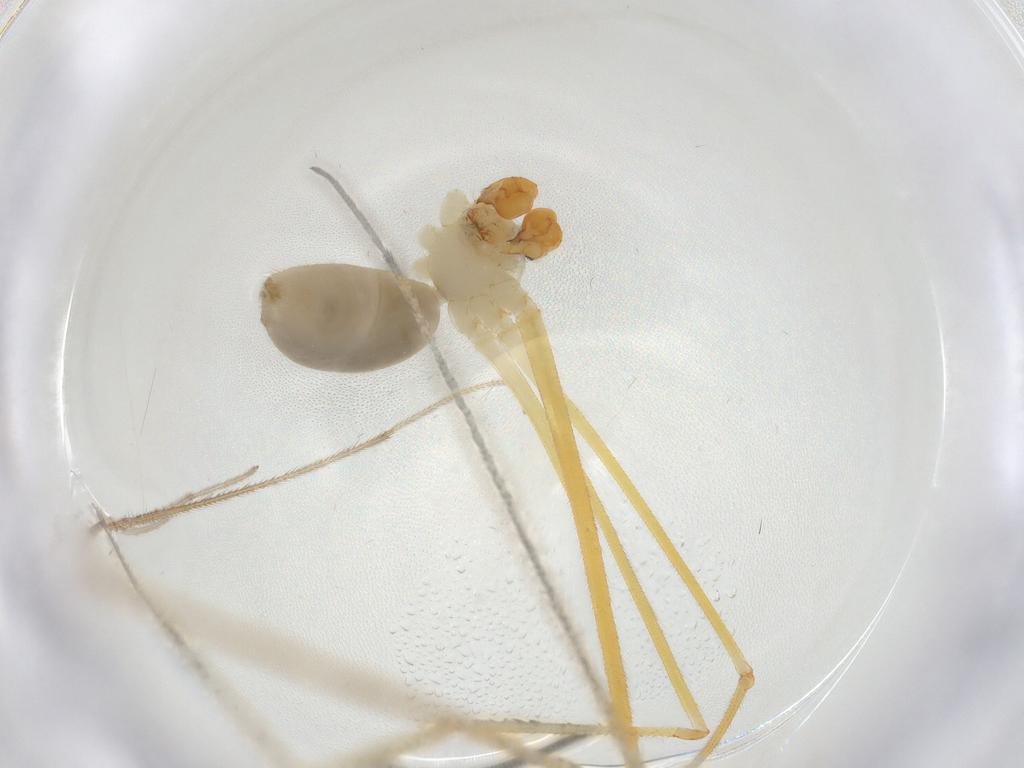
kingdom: Animalia
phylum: Arthropoda
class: Arachnida
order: Araneae
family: Pholcidae
